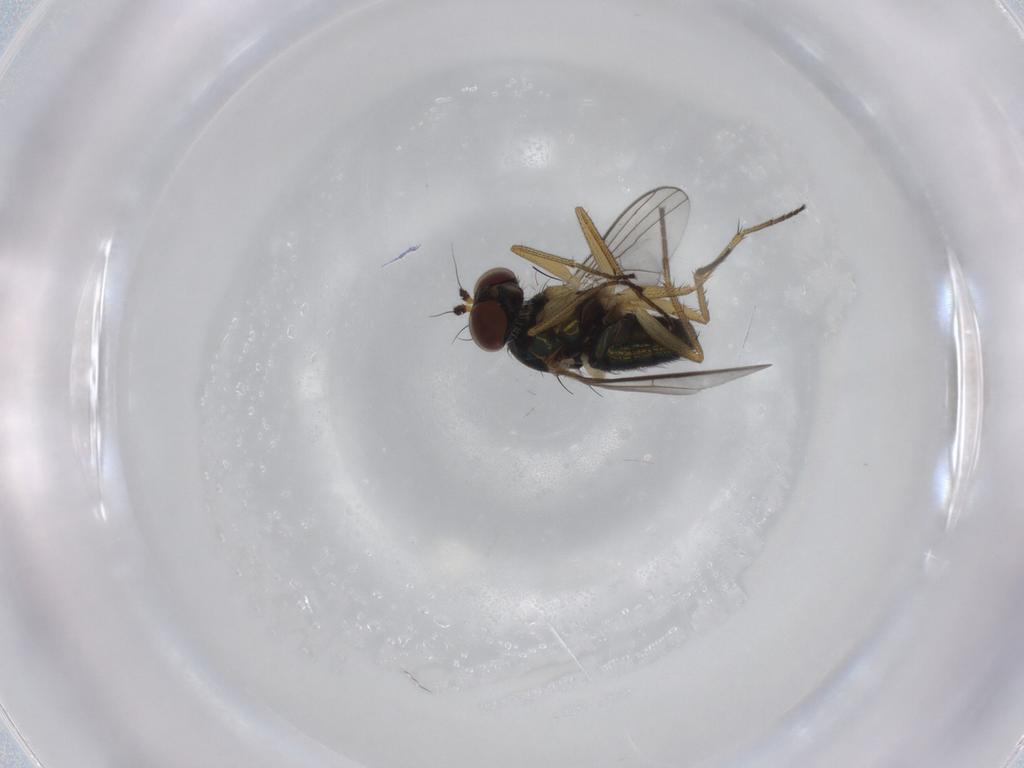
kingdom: Animalia
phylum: Arthropoda
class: Insecta
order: Diptera
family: Dolichopodidae
